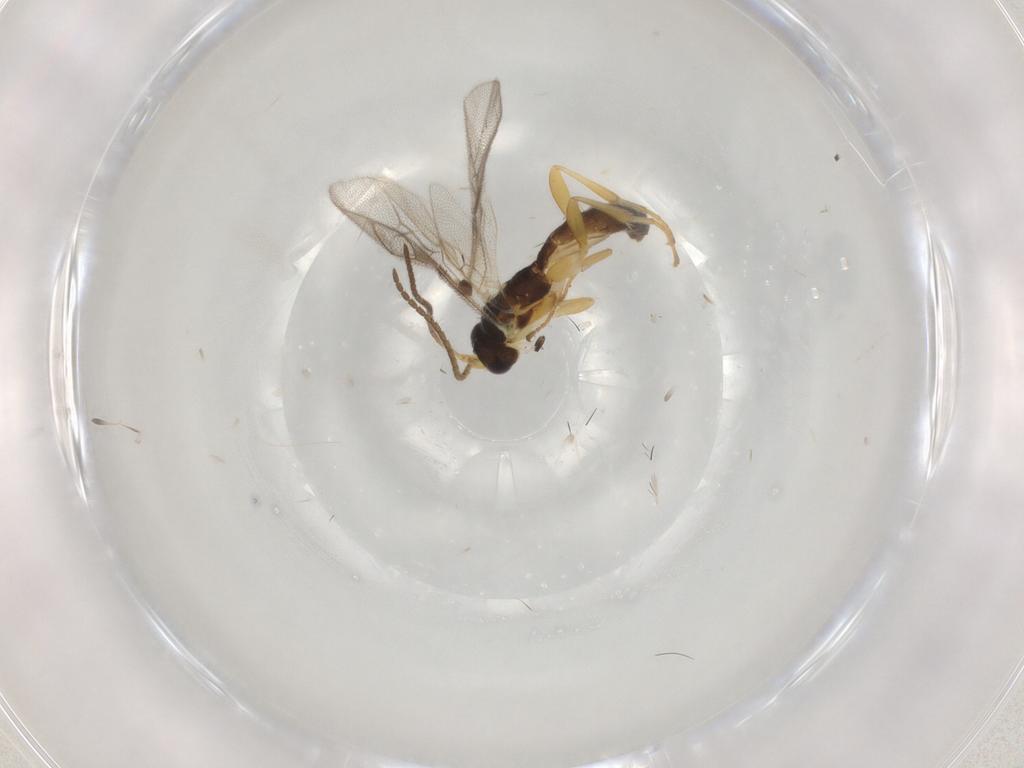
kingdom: Animalia
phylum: Arthropoda
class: Insecta
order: Hymenoptera
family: Ichneumonidae
